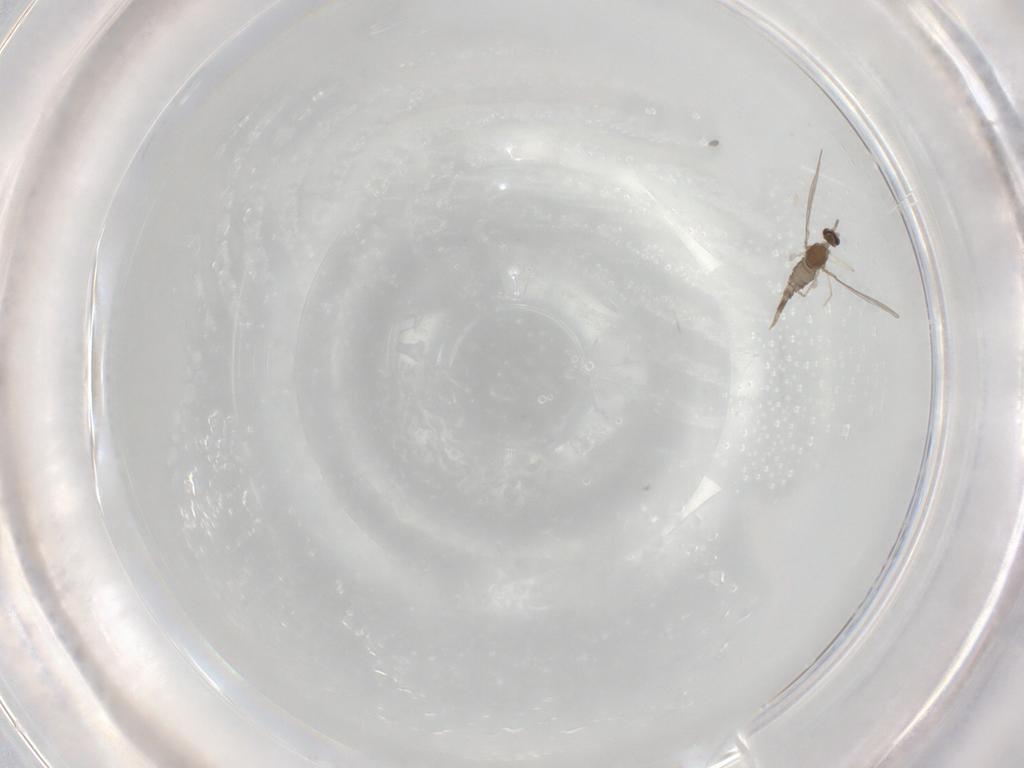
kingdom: Animalia
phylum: Arthropoda
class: Insecta
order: Diptera
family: Cecidomyiidae
